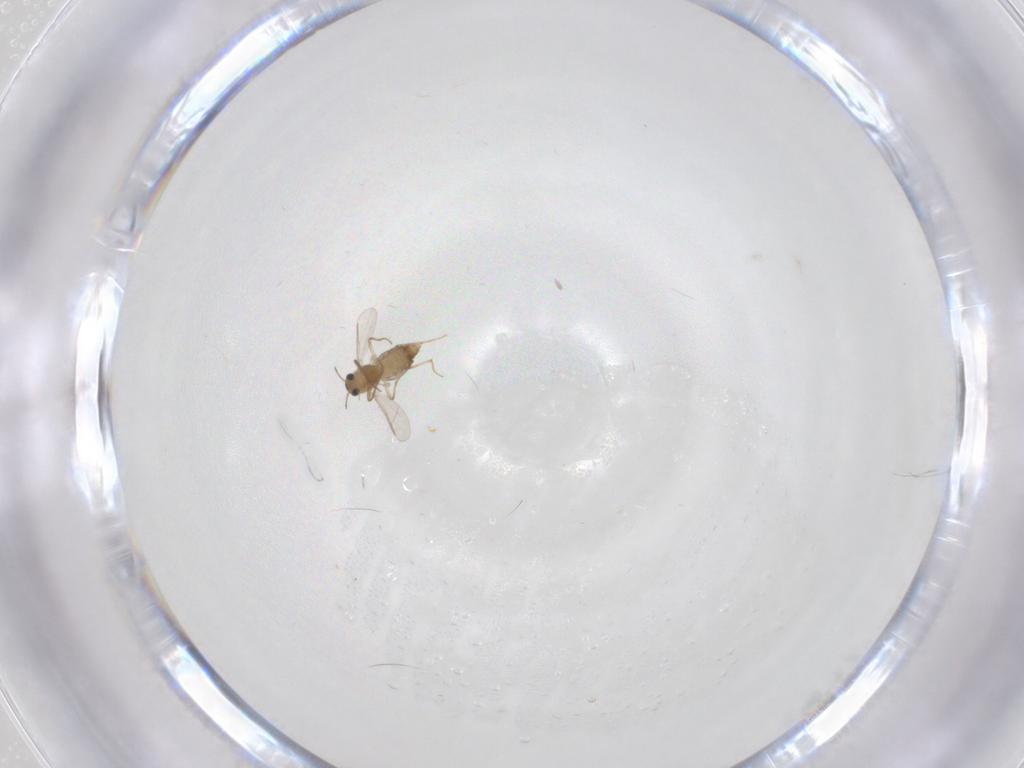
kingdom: Animalia
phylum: Arthropoda
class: Insecta
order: Diptera
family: Chironomidae
